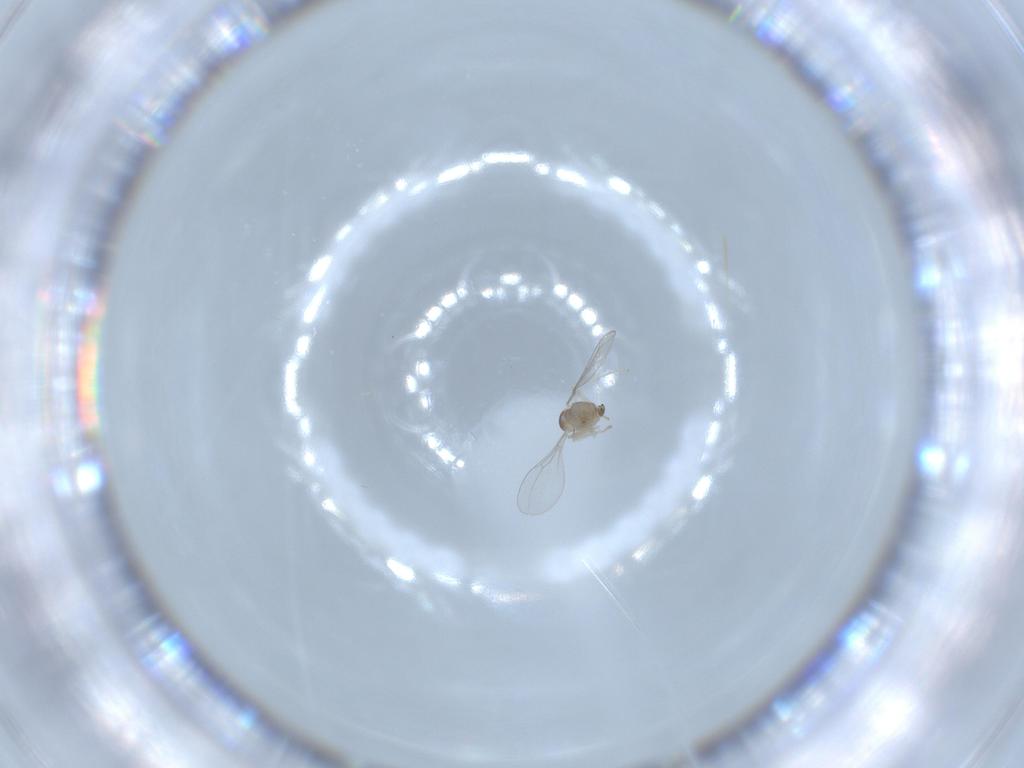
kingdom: Animalia
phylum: Arthropoda
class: Insecta
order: Diptera
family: Cecidomyiidae
